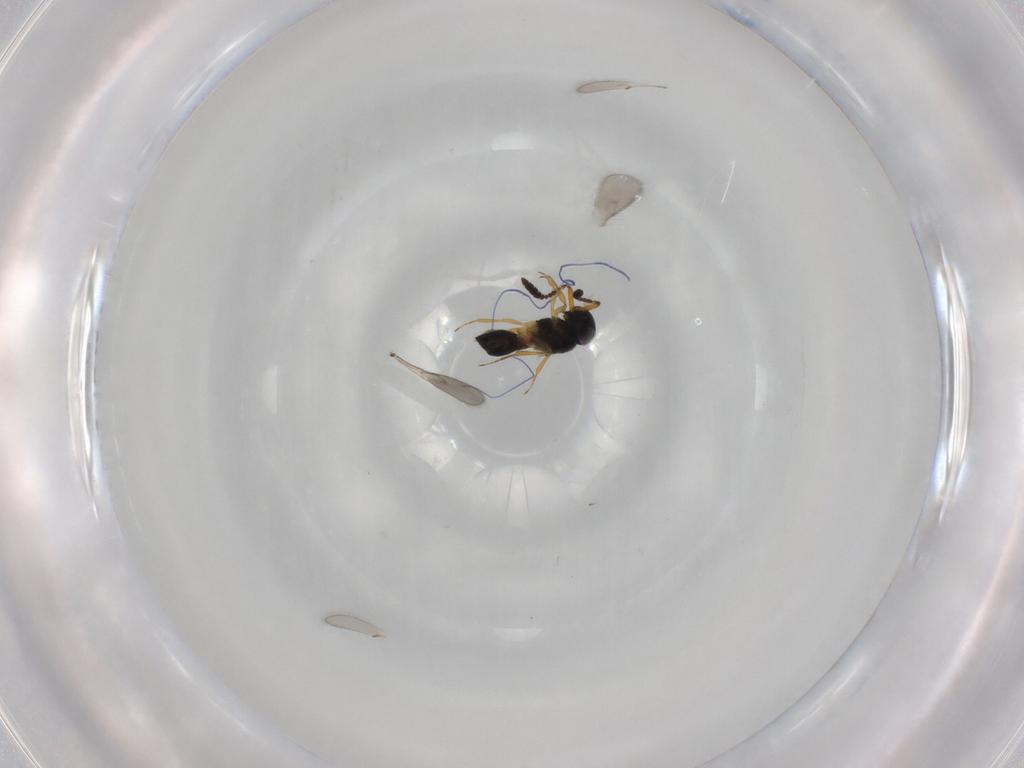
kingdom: Animalia
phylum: Arthropoda
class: Insecta
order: Hymenoptera
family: Scelionidae
